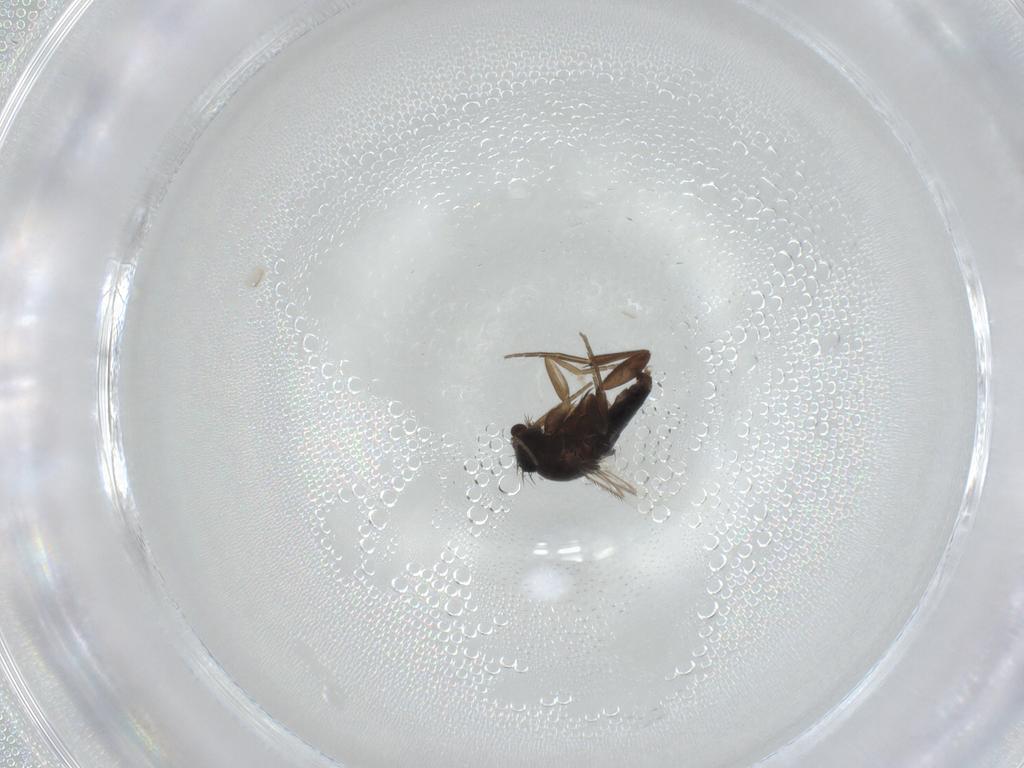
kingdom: Animalia
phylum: Arthropoda
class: Insecta
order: Diptera
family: Phoridae
